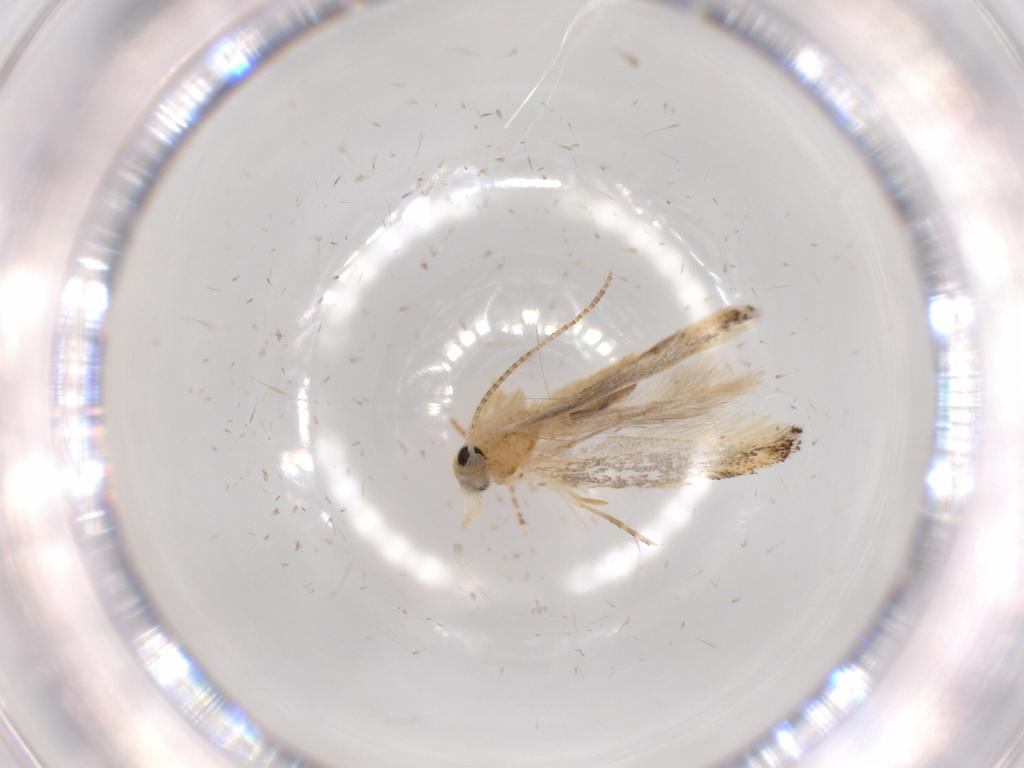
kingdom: Animalia
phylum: Arthropoda
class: Insecta
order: Lepidoptera
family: Bucculatricidae
